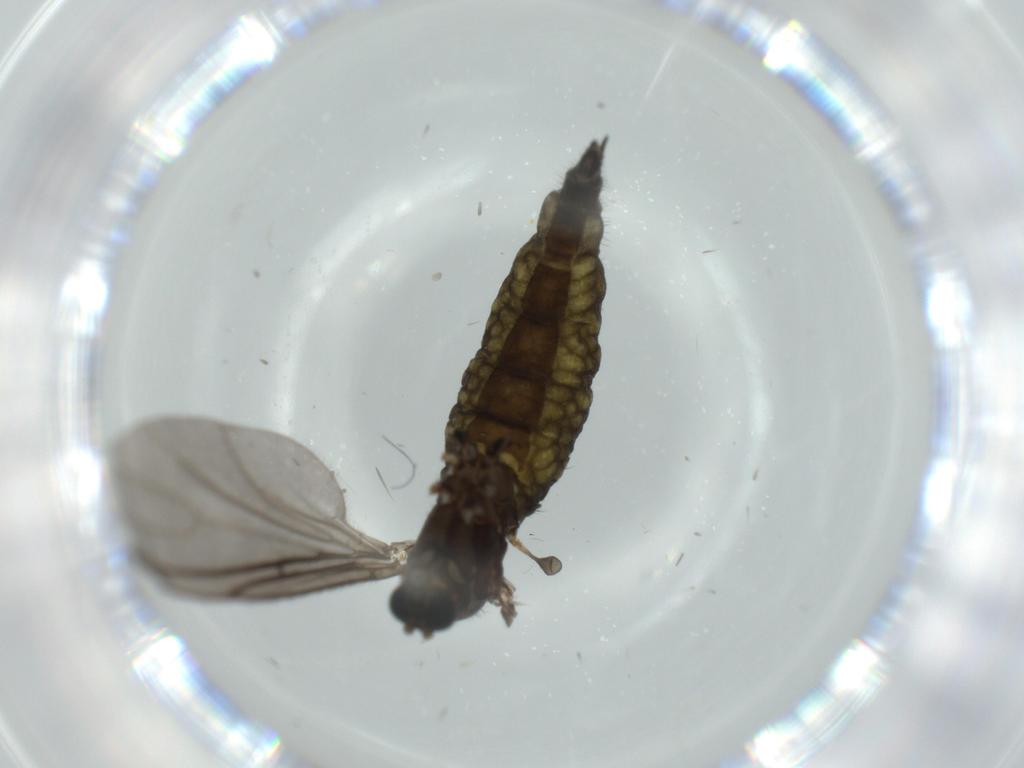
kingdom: Animalia
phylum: Arthropoda
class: Insecta
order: Diptera
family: Sciaridae
